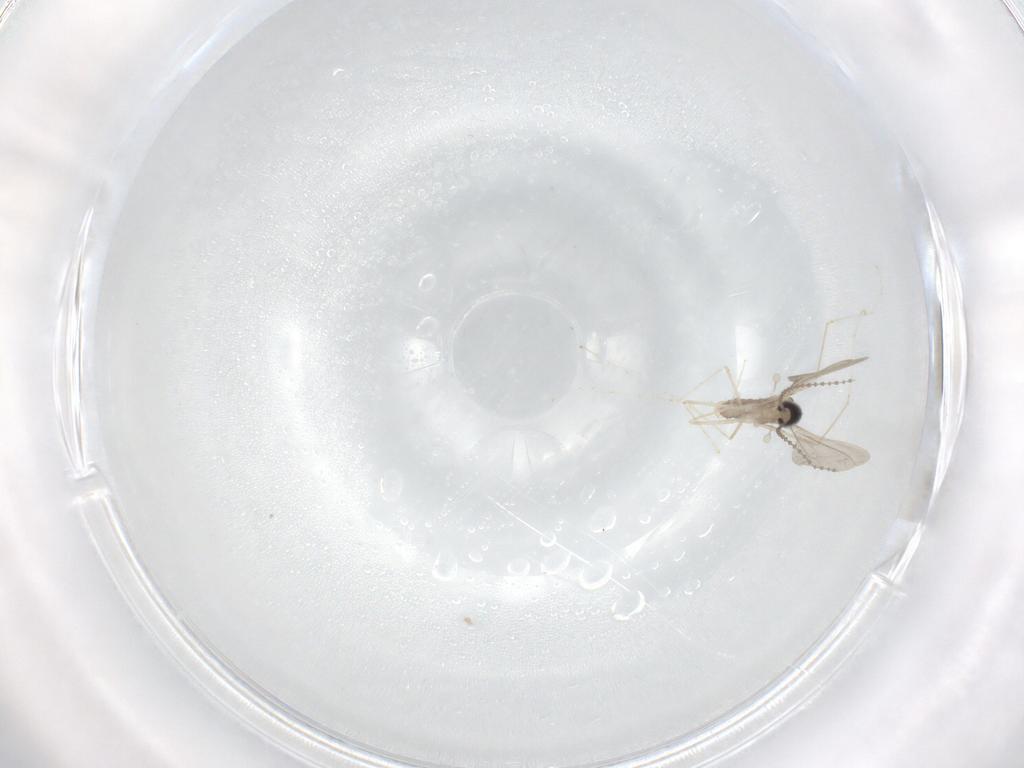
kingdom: Animalia
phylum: Arthropoda
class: Insecta
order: Diptera
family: Cecidomyiidae
